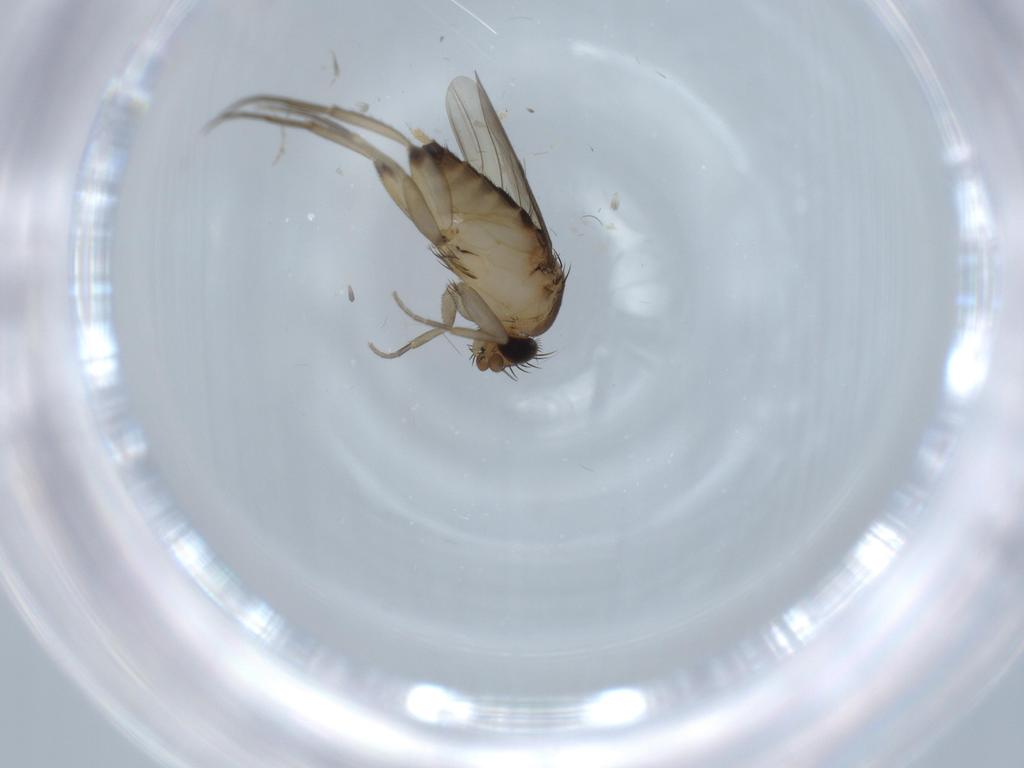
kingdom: Animalia
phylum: Arthropoda
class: Insecta
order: Diptera
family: Chironomidae
